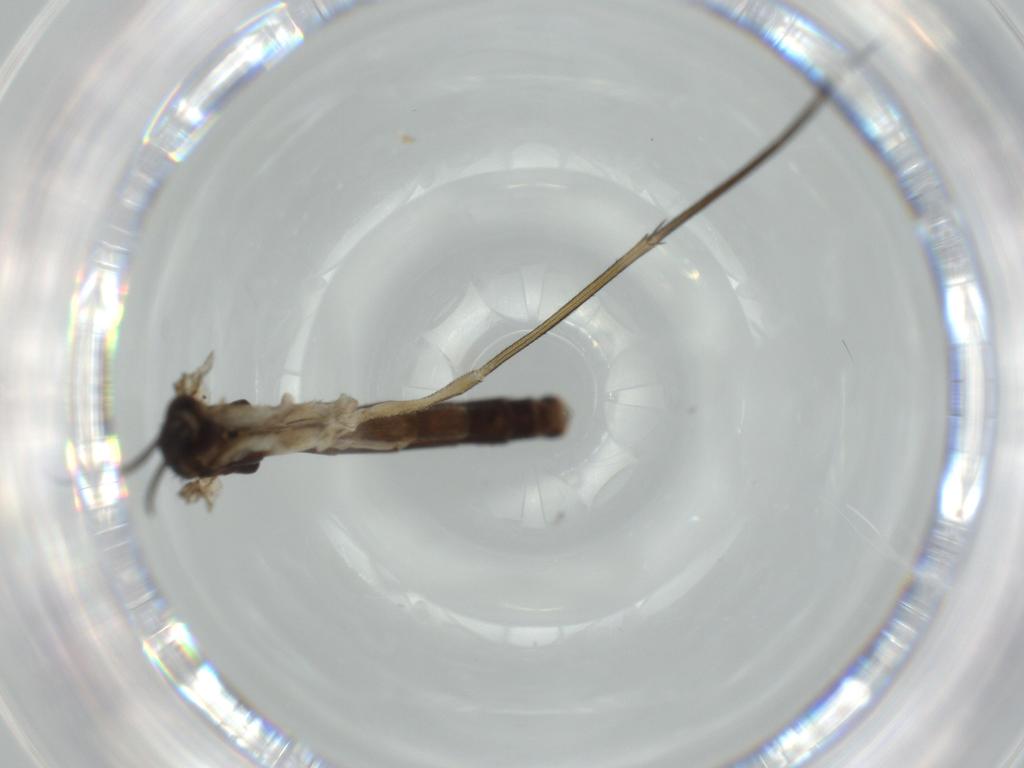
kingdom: Animalia
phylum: Arthropoda
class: Insecta
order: Diptera
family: Keroplatidae
